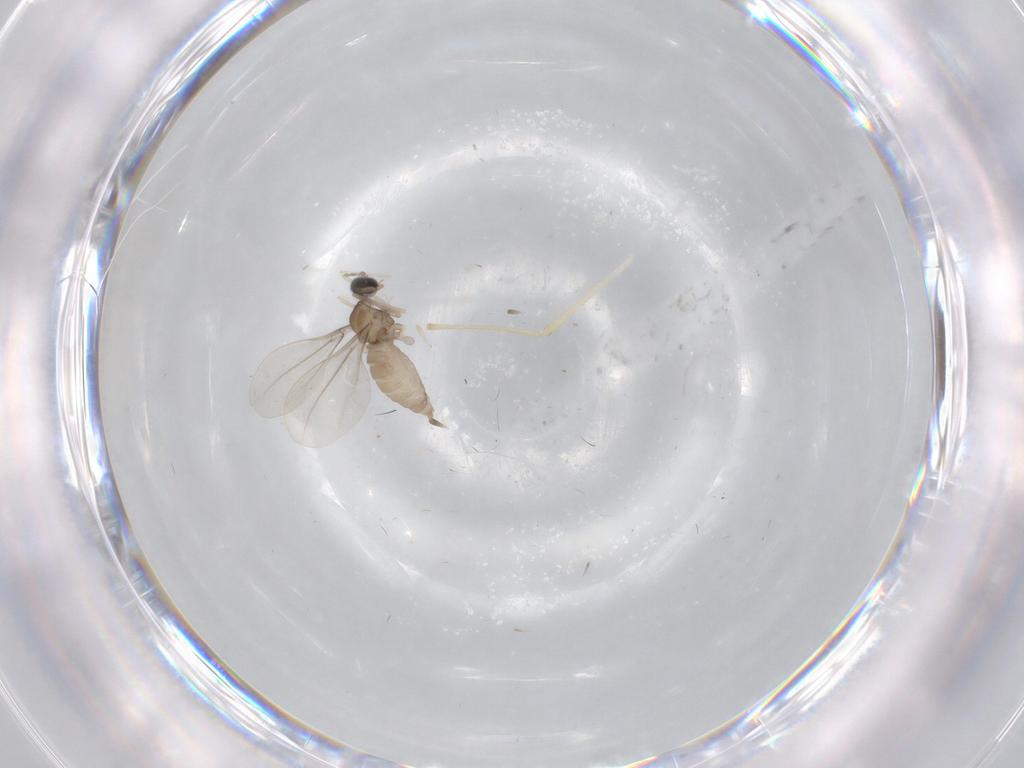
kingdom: Animalia
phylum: Arthropoda
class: Insecta
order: Diptera
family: Cecidomyiidae
